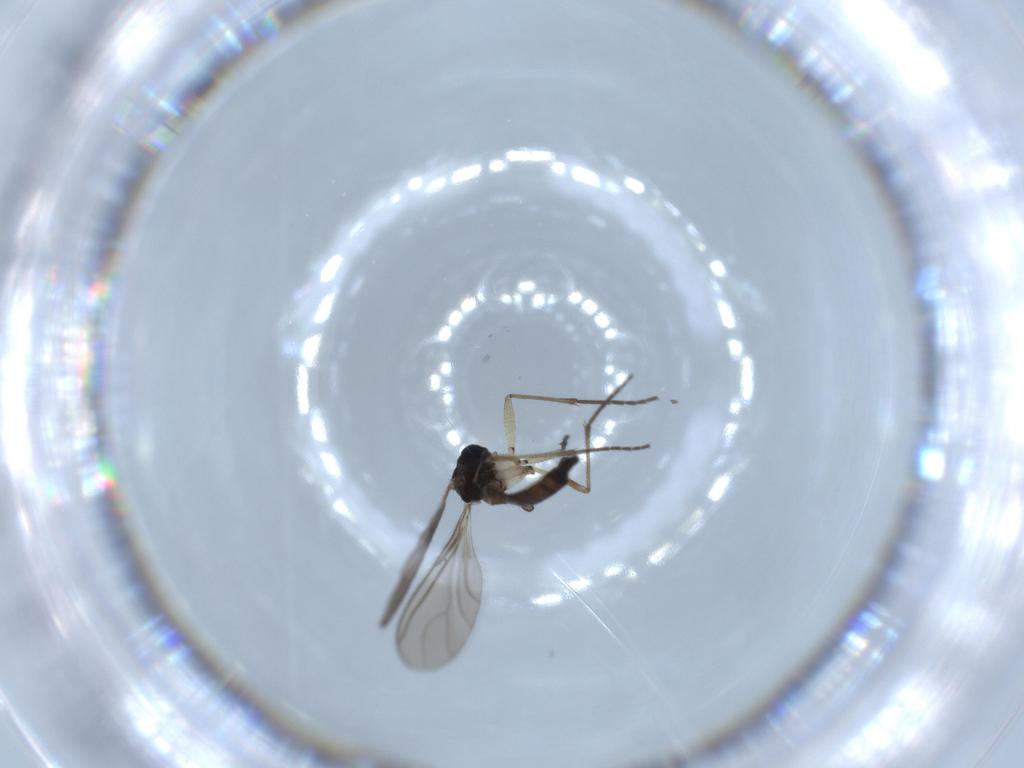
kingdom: Animalia
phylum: Arthropoda
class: Insecta
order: Diptera
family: Sciaridae
